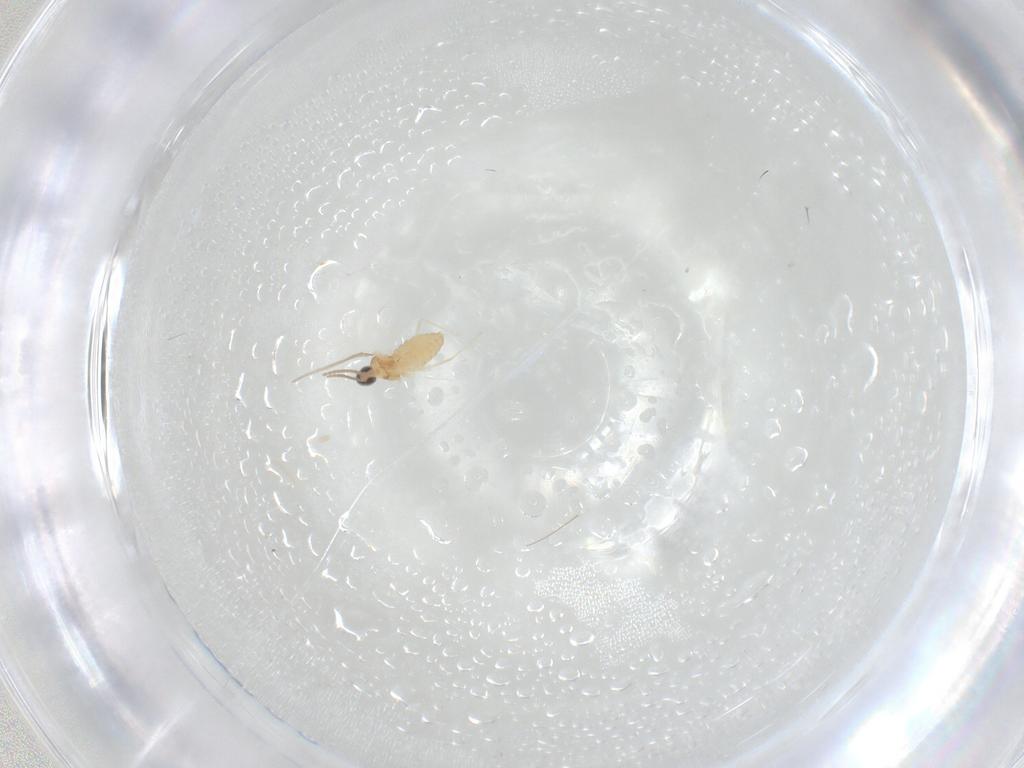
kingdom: Animalia
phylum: Arthropoda
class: Insecta
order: Diptera
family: Cecidomyiidae
